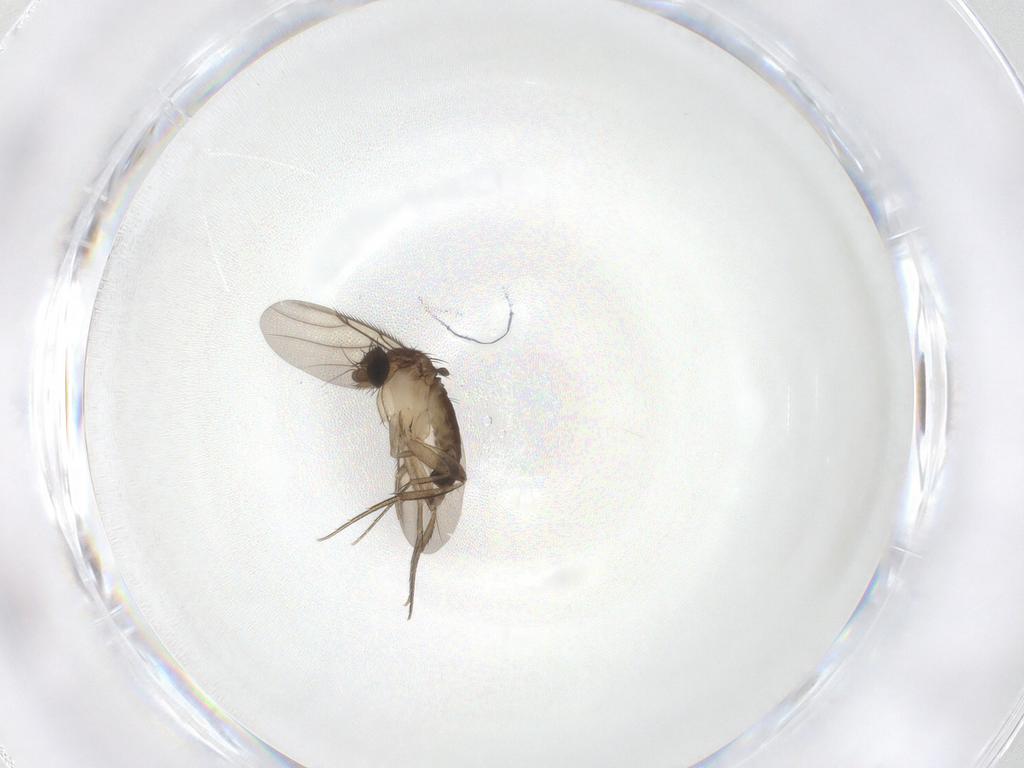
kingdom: Animalia
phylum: Arthropoda
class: Insecta
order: Diptera
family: Phoridae
